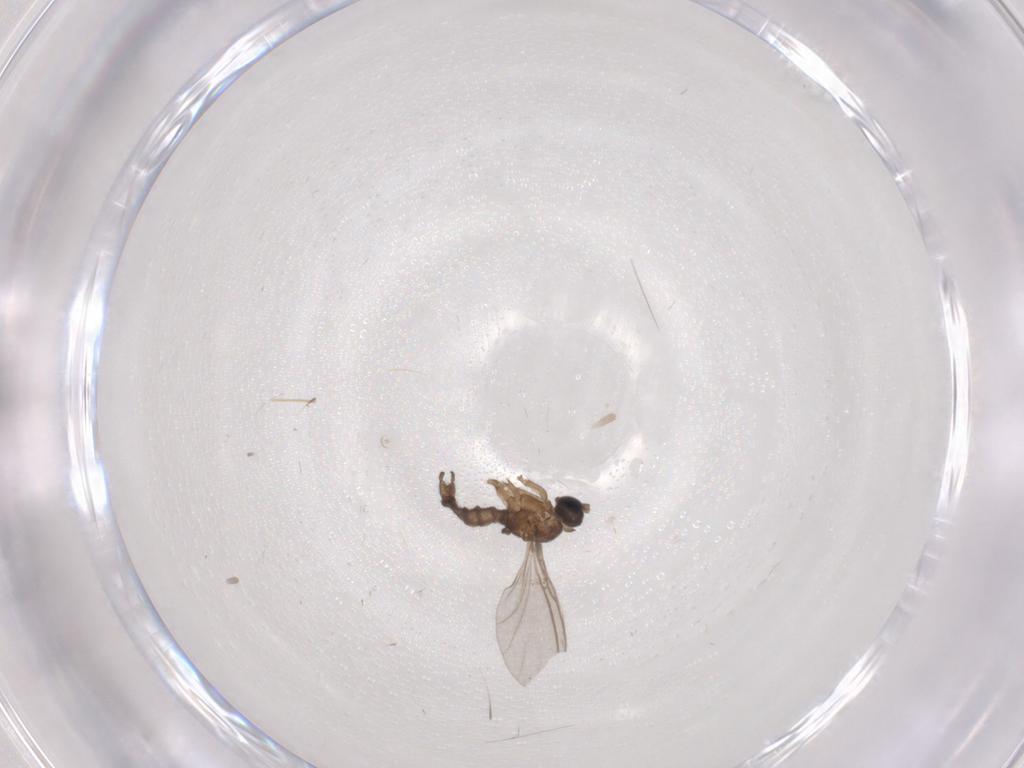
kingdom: Animalia
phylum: Arthropoda
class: Insecta
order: Diptera
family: Sciaridae
